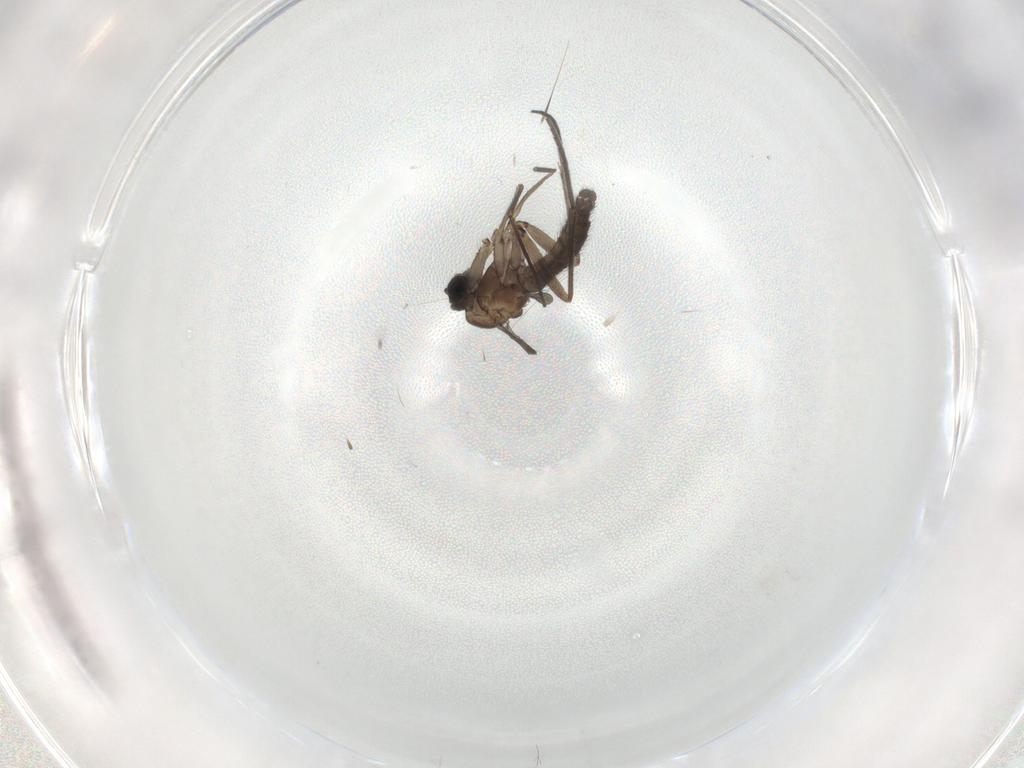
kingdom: Animalia
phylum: Arthropoda
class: Insecta
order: Diptera
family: Sciaridae
